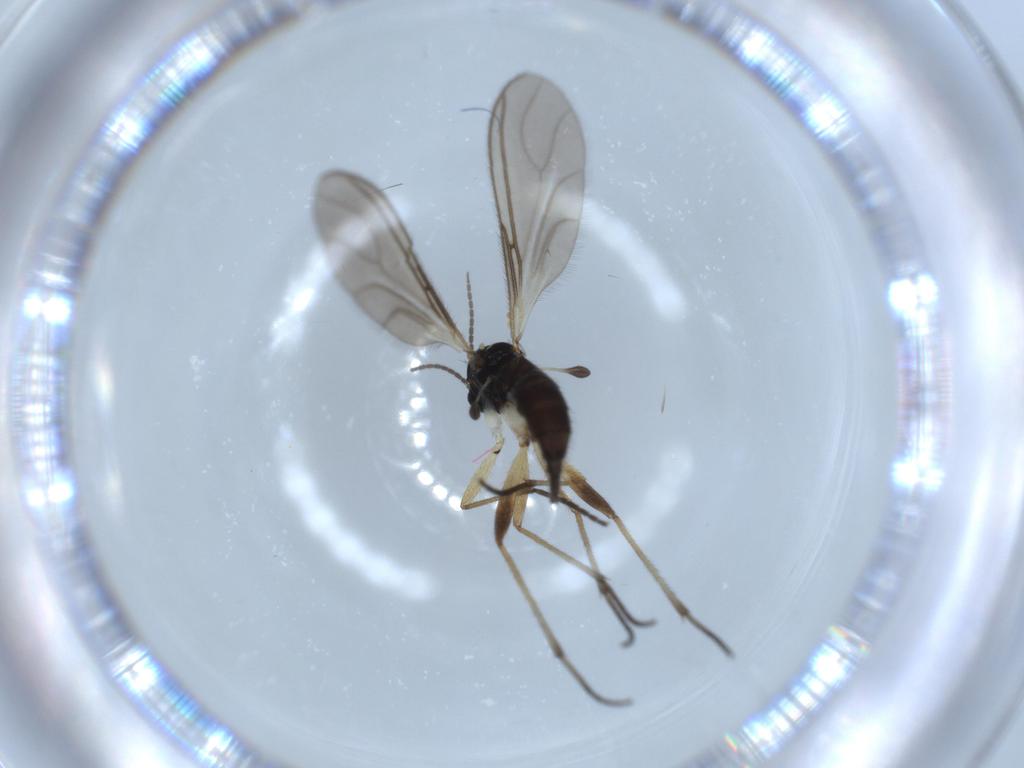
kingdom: Animalia
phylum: Arthropoda
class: Insecta
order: Diptera
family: Sciaridae
